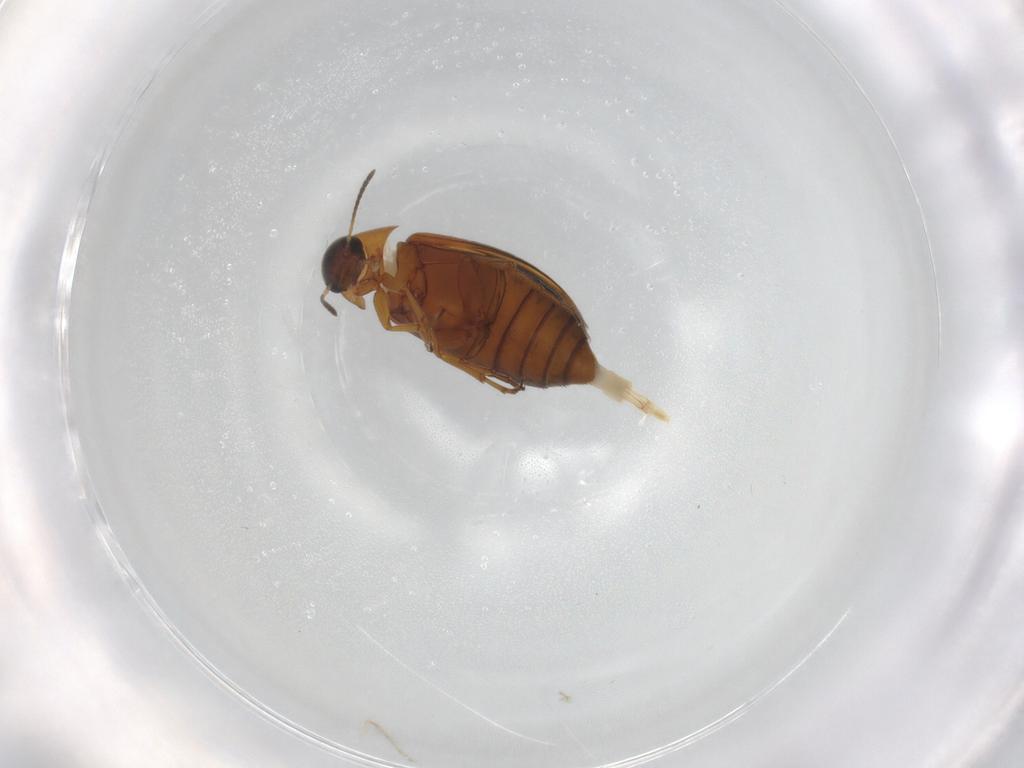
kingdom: Animalia
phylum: Arthropoda
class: Insecta
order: Coleoptera
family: Scraptiidae
